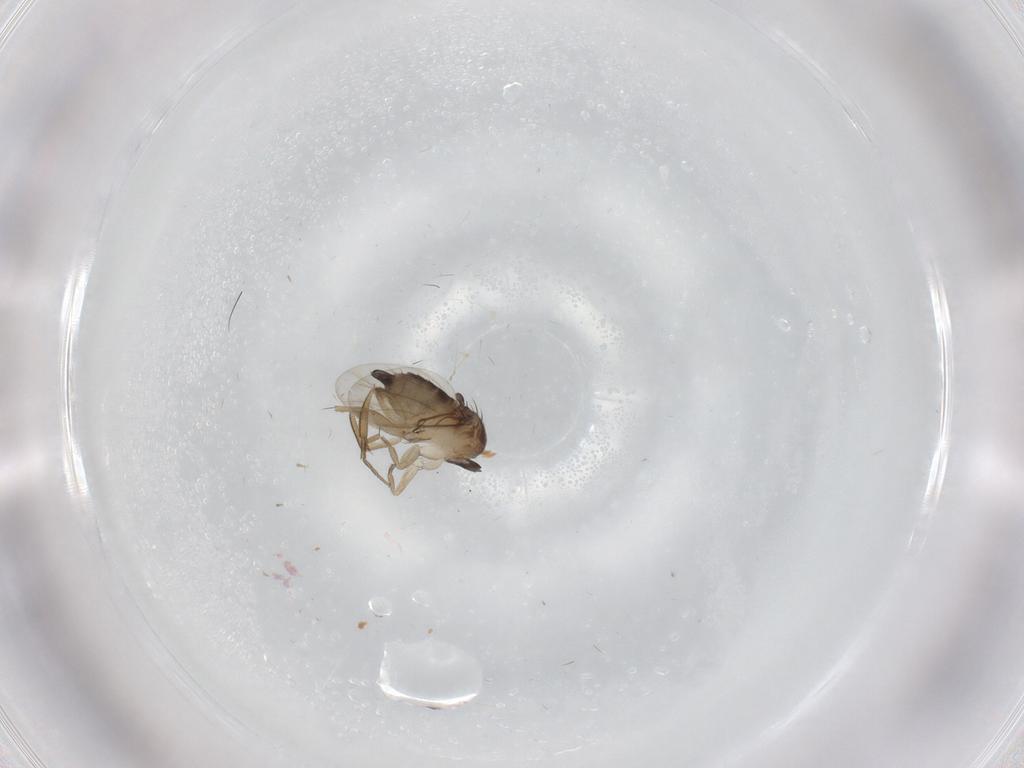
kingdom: Animalia
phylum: Arthropoda
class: Insecta
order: Diptera
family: Phoridae
